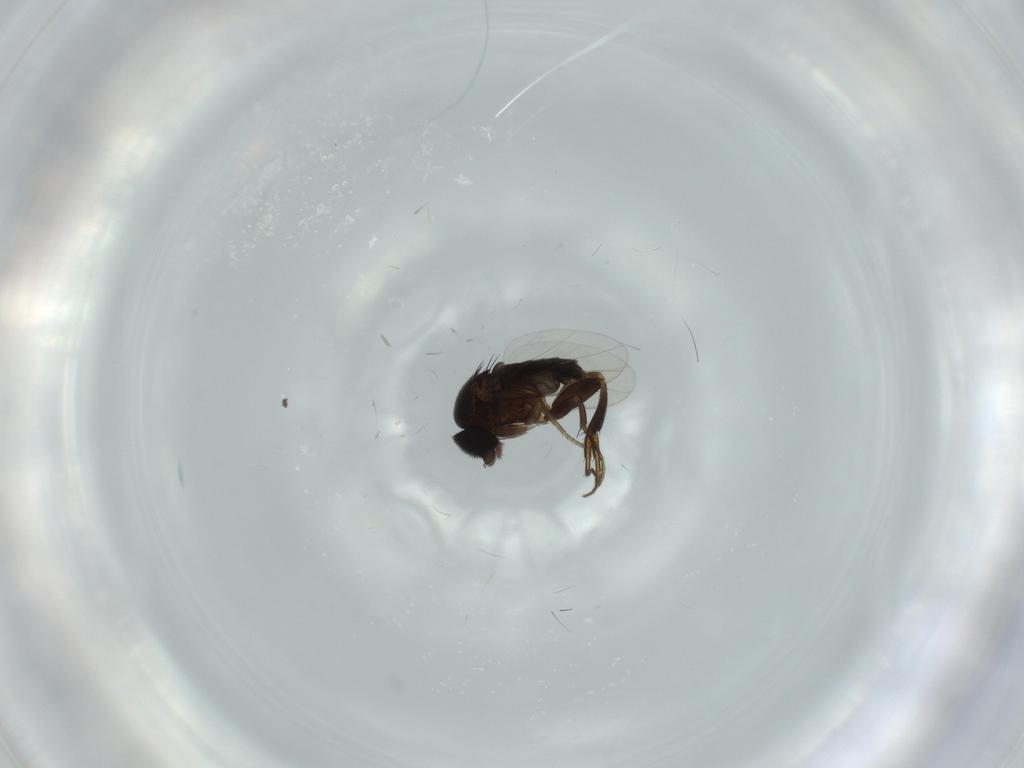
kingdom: Animalia
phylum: Arthropoda
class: Insecta
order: Diptera
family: Phoridae
